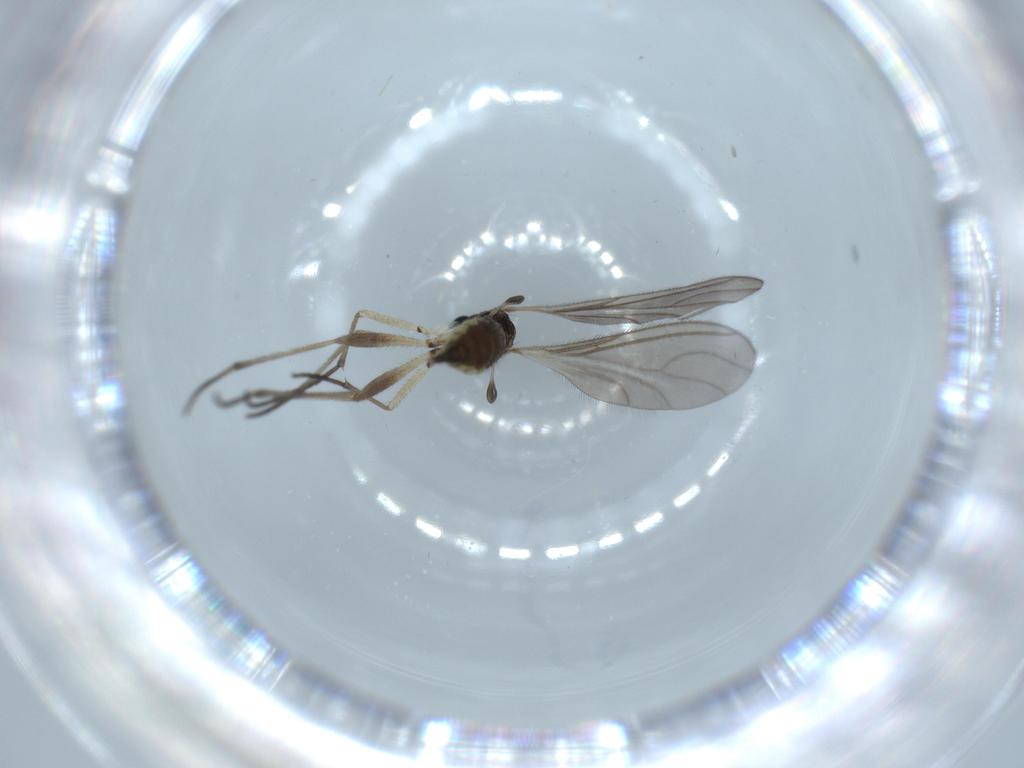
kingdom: Animalia
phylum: Arthropoda
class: Insecta
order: Diptera
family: Sciaridae
